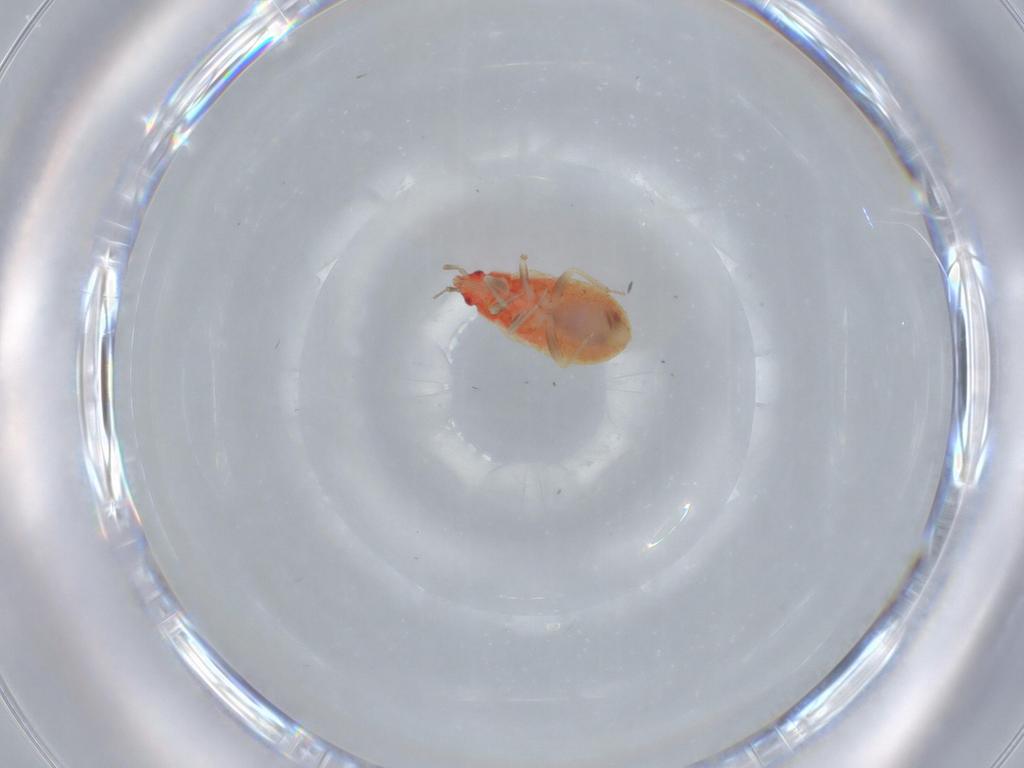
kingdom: Animalia
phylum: Arthropoda
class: Insecta
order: Hemiptera
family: Anthocoridae
